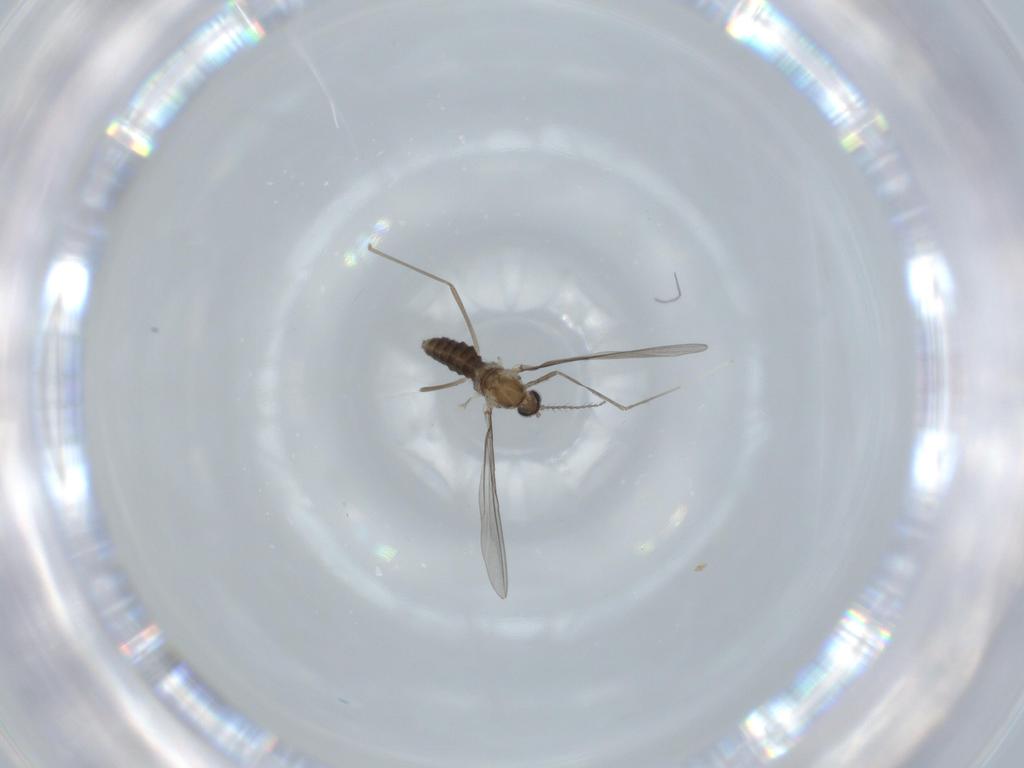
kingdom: Animalia
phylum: Arthropoda
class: Insecta
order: Diptera
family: Cecidomyiidae
